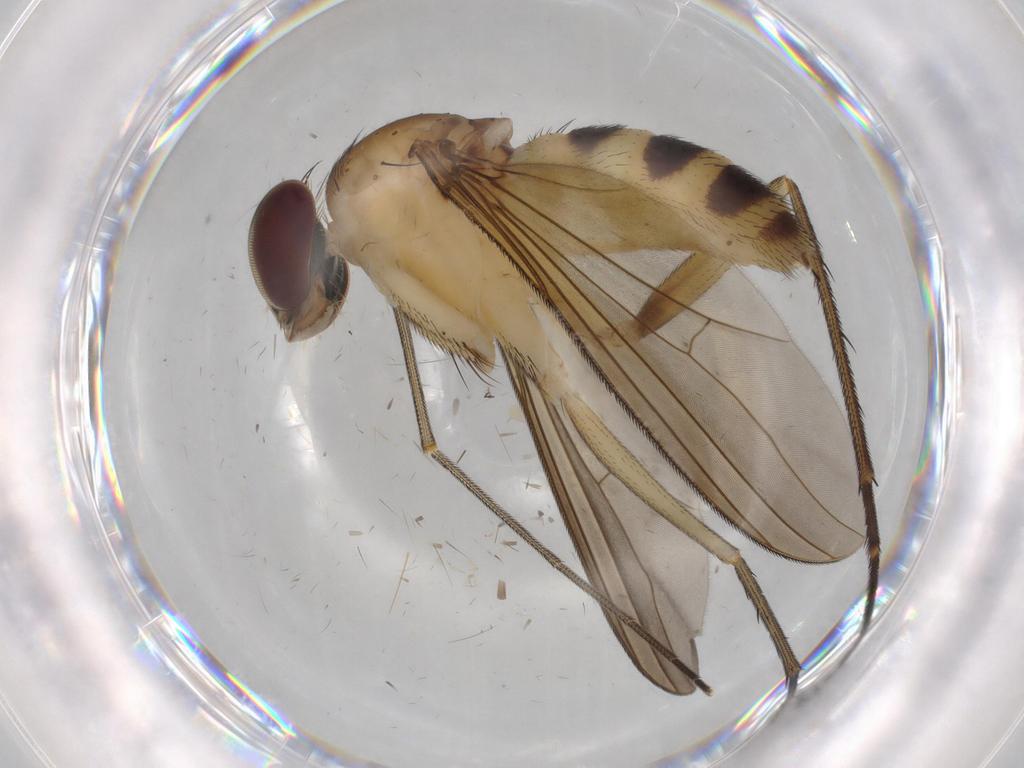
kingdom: Animalia
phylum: Arthropoda
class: Insecta
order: Diptera
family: Dolichopodidae
